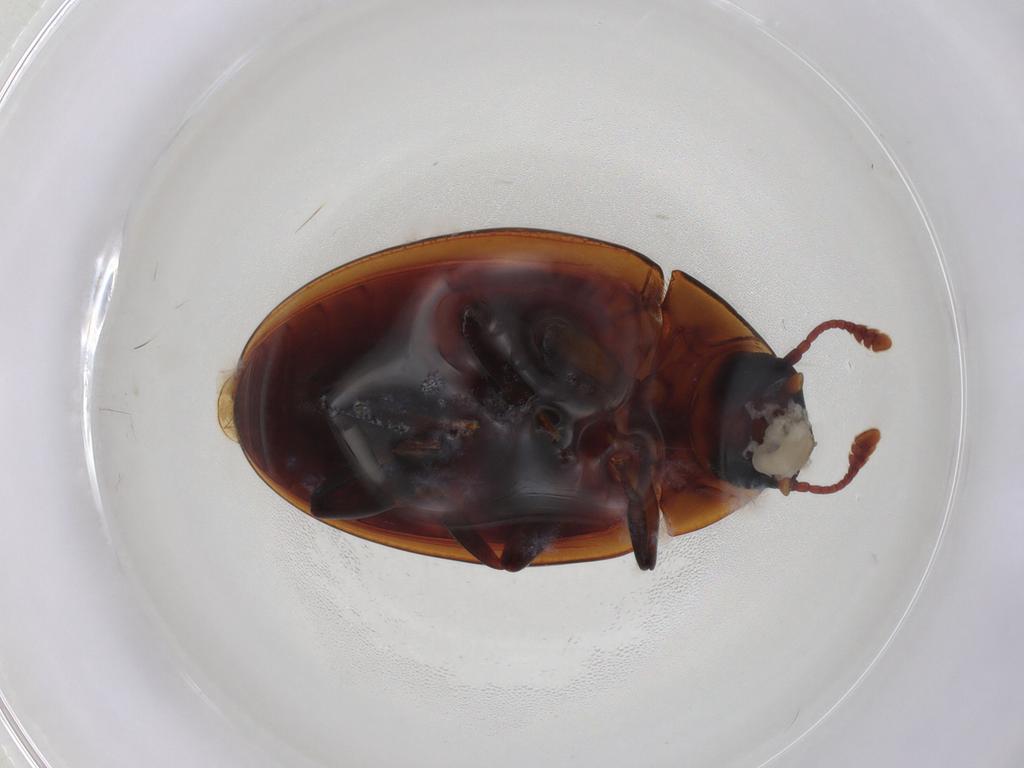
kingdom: Animalia
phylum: Arthropoda
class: Insecta
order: Coleoptera
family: Zopheridae
